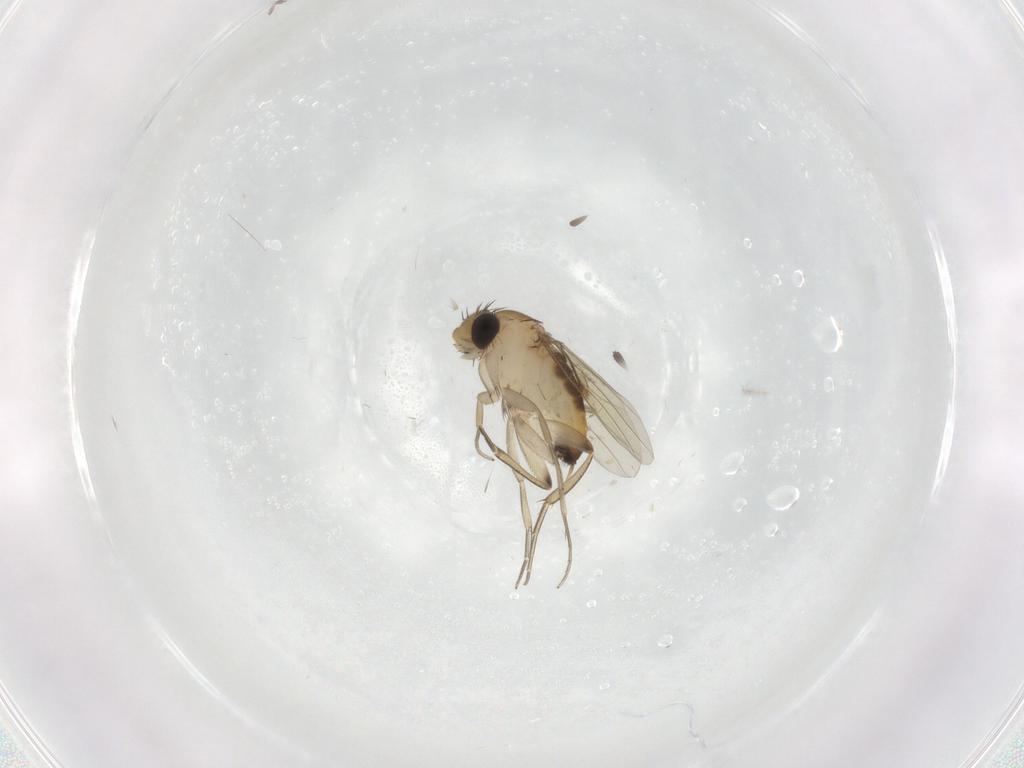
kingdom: Animalia
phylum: Arthropoda
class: Insecta
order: Diptera
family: Phoridae
